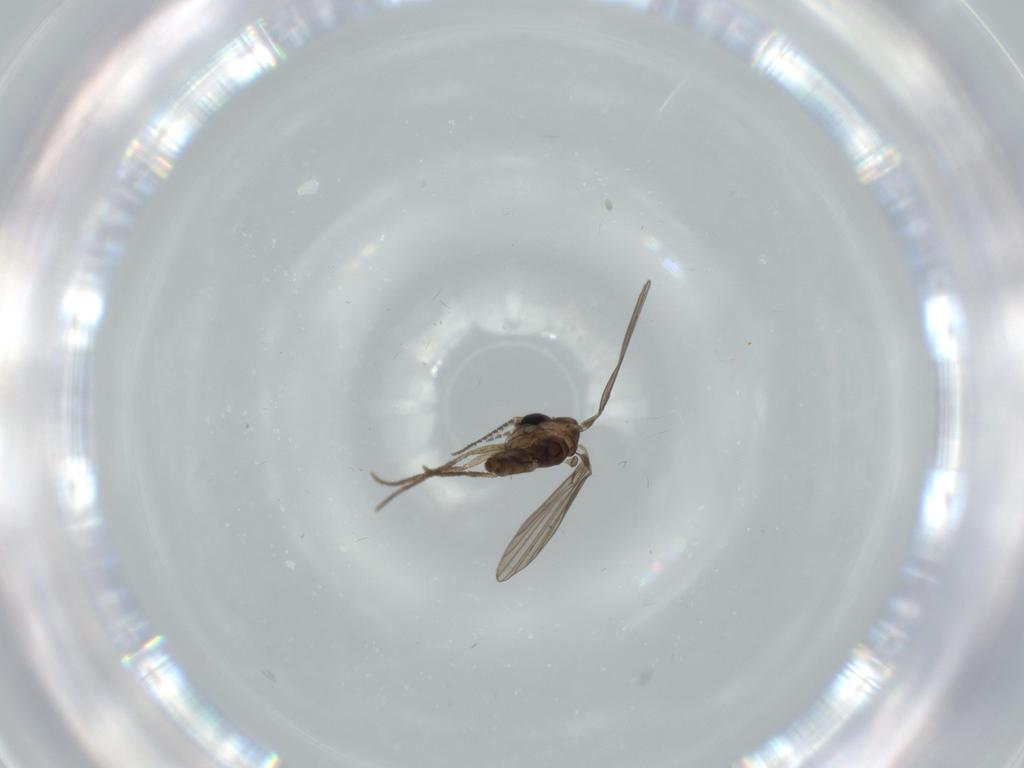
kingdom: Animalia
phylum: Arthropoda
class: Insecta
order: Diptera
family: Psychodidae
